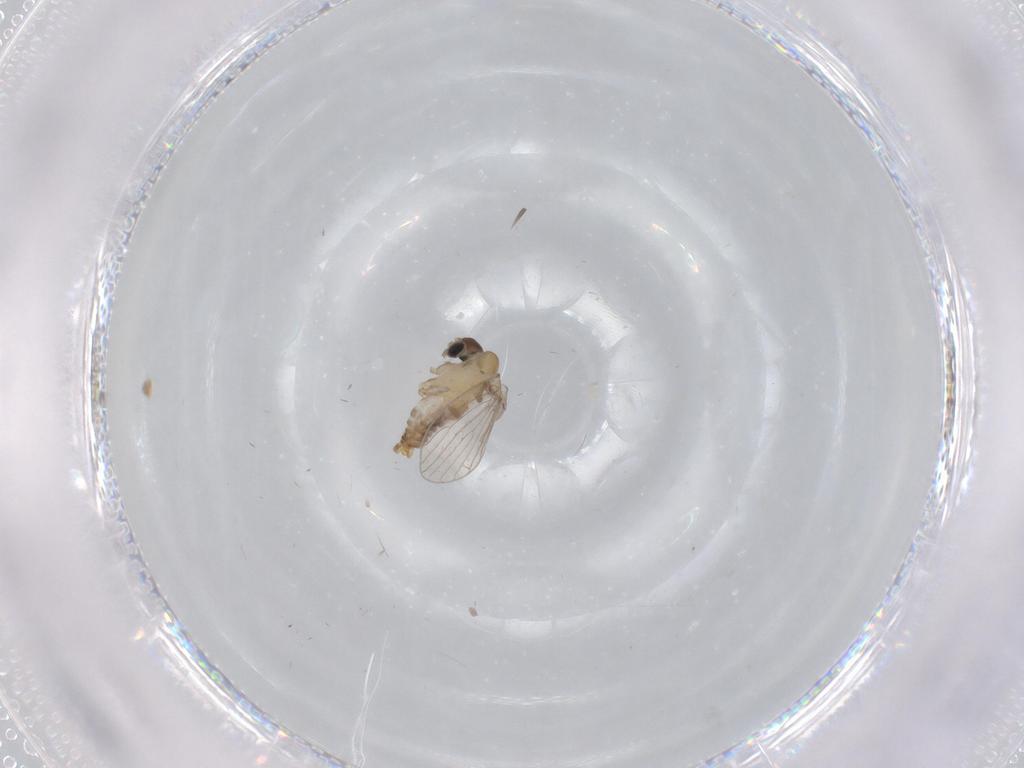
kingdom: Animalia
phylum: Arthropoda
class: Insecta
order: Diptera
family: Psychodidae
